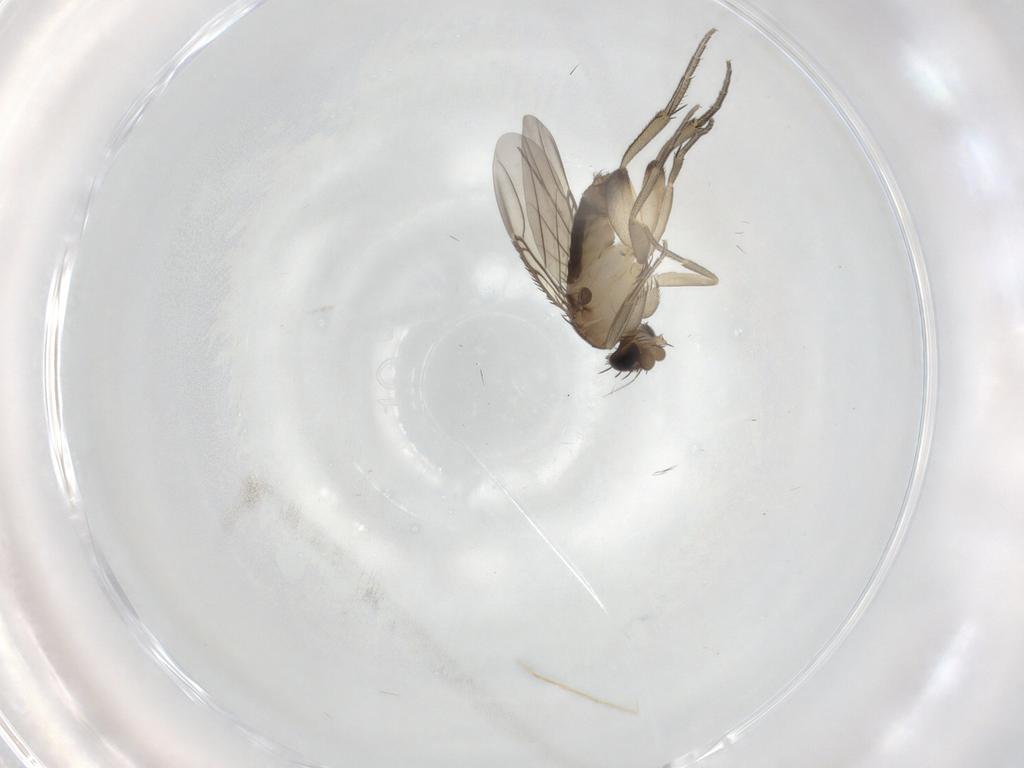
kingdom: Animalia
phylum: Arthropoda
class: Insecta
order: Diptera
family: Phoridae
